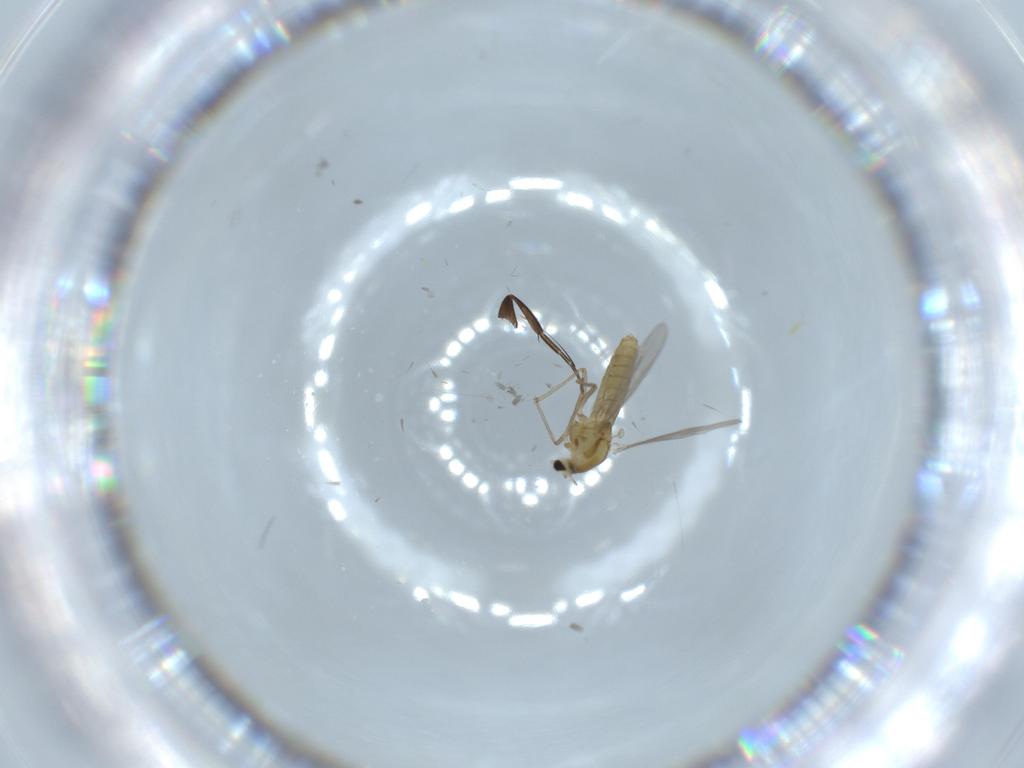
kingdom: Animalia
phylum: Arthropoda
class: Insecta
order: Diptera
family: Chironomidae
